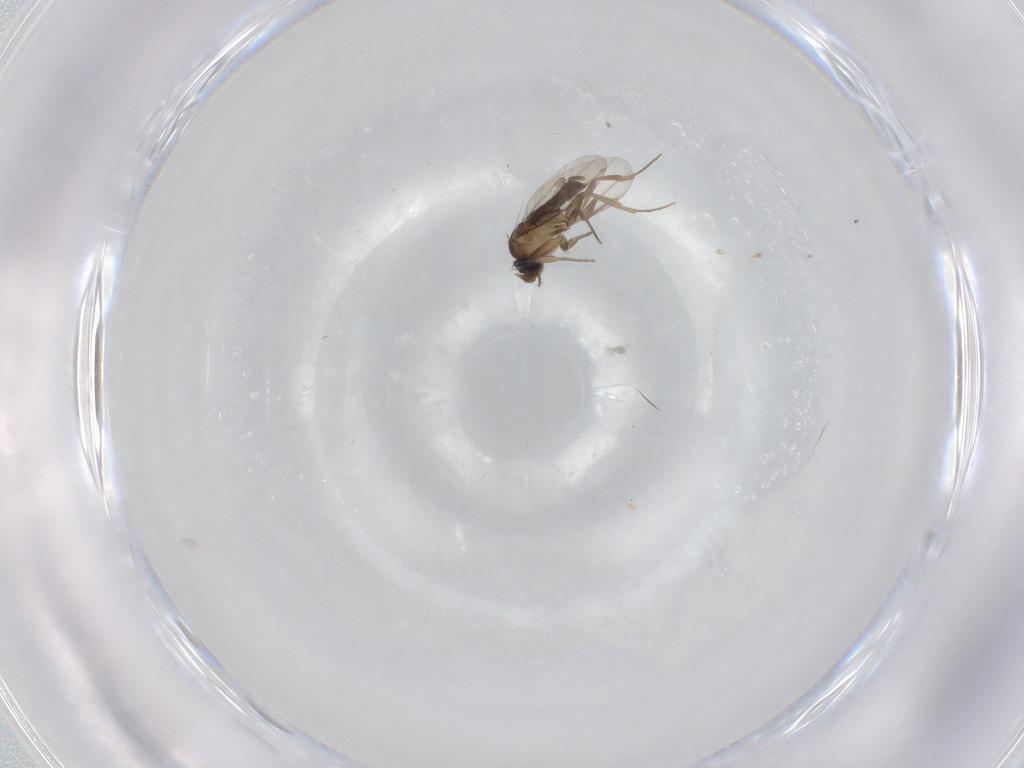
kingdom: Animalia
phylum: Arthropoda
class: Insecta
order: Diptera
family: Phoridae
